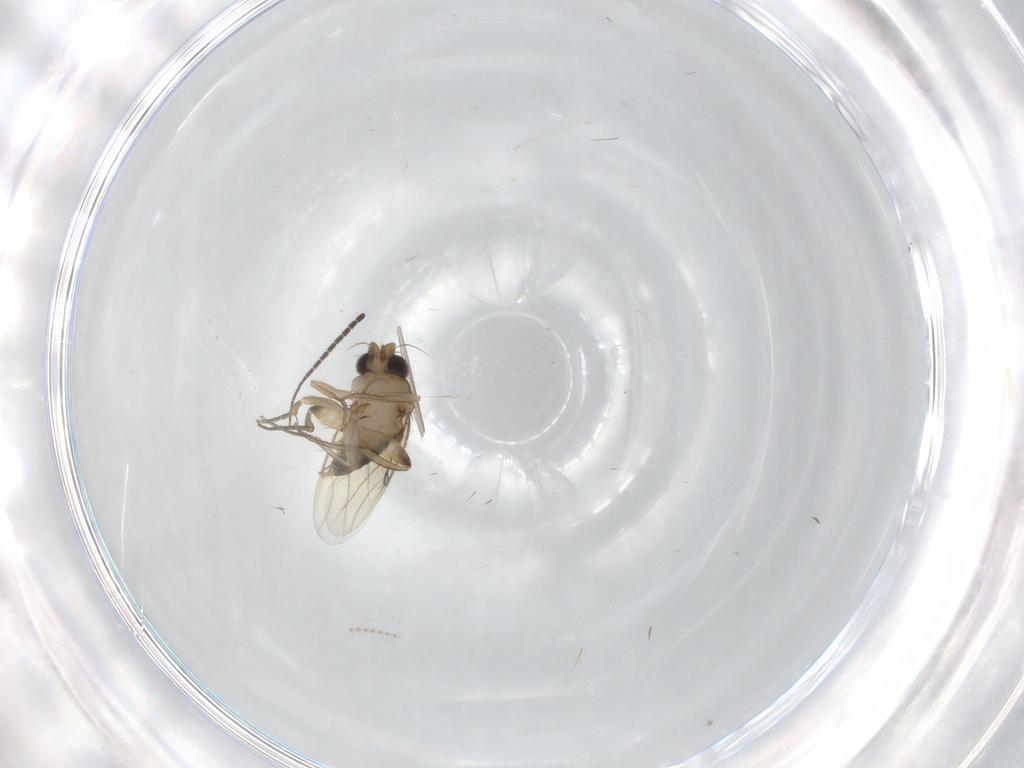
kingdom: Animalia
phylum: Arthropoda
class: Insecta
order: Diptera
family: Phoridae
